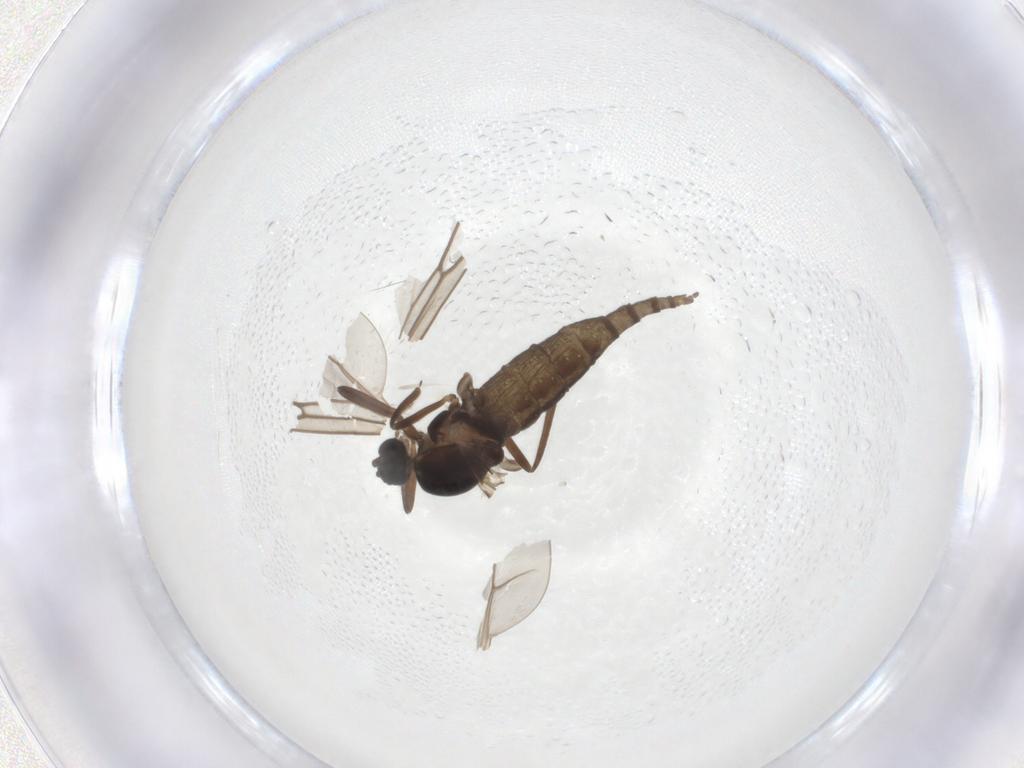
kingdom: Animalia
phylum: Arthropoda
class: Insecta
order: Diptera
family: Cecidomyiidae
